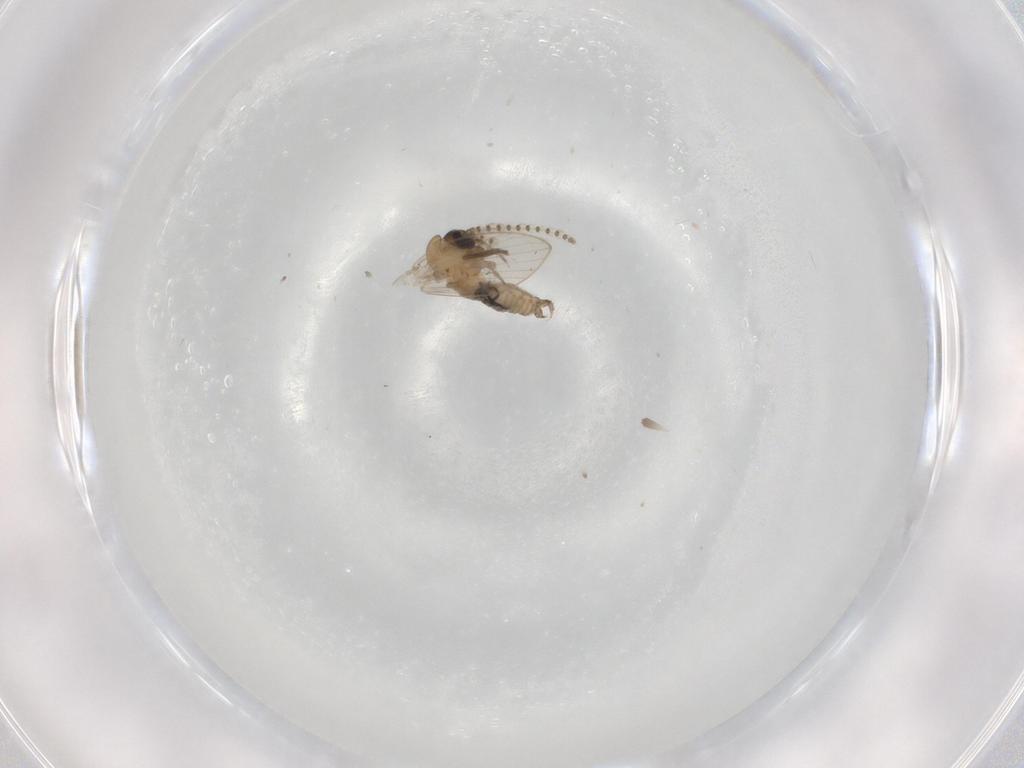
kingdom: Animalia
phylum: Arthropoda
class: Insecta
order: Diptera
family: Psychodidae
